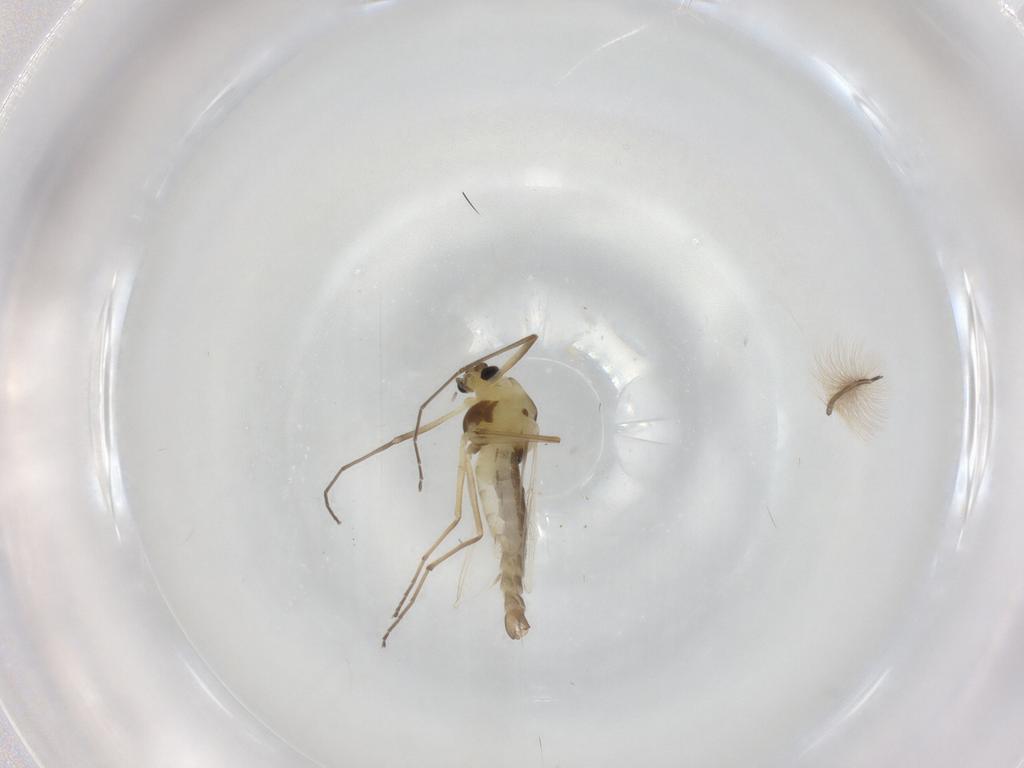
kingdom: Animalia
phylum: Arthropoda
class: Insecta
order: Diptera
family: Chironomidae
